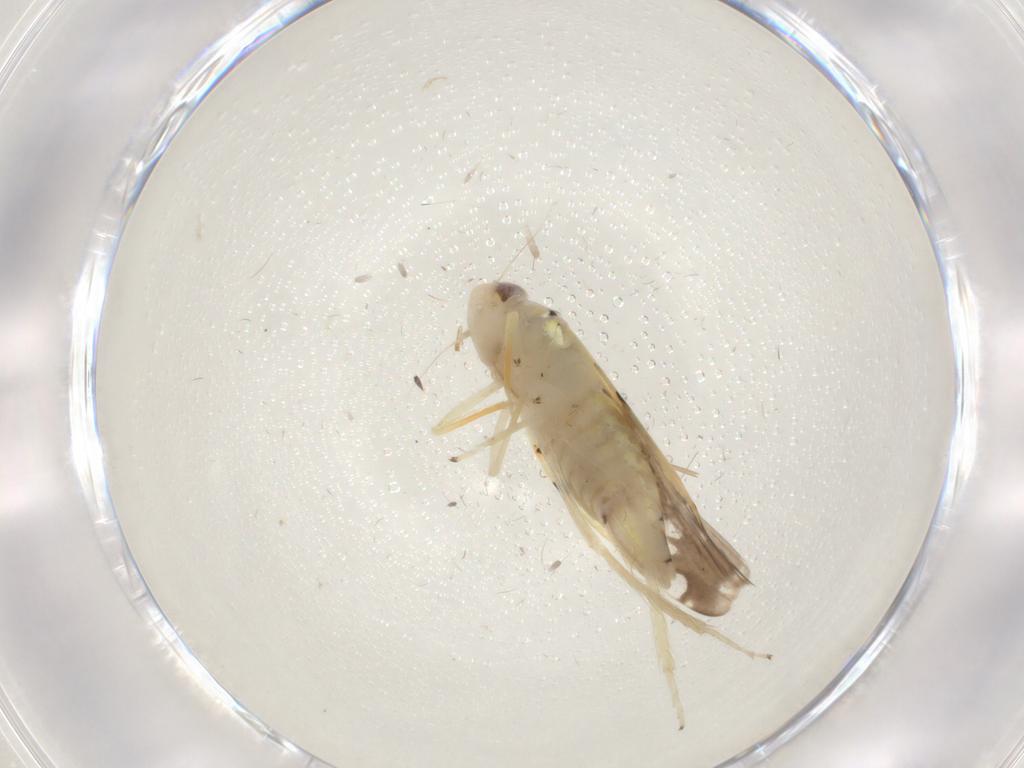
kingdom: Animalia
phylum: Arthropoda
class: Insecta
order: Hemiptera
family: Cicadellidae
